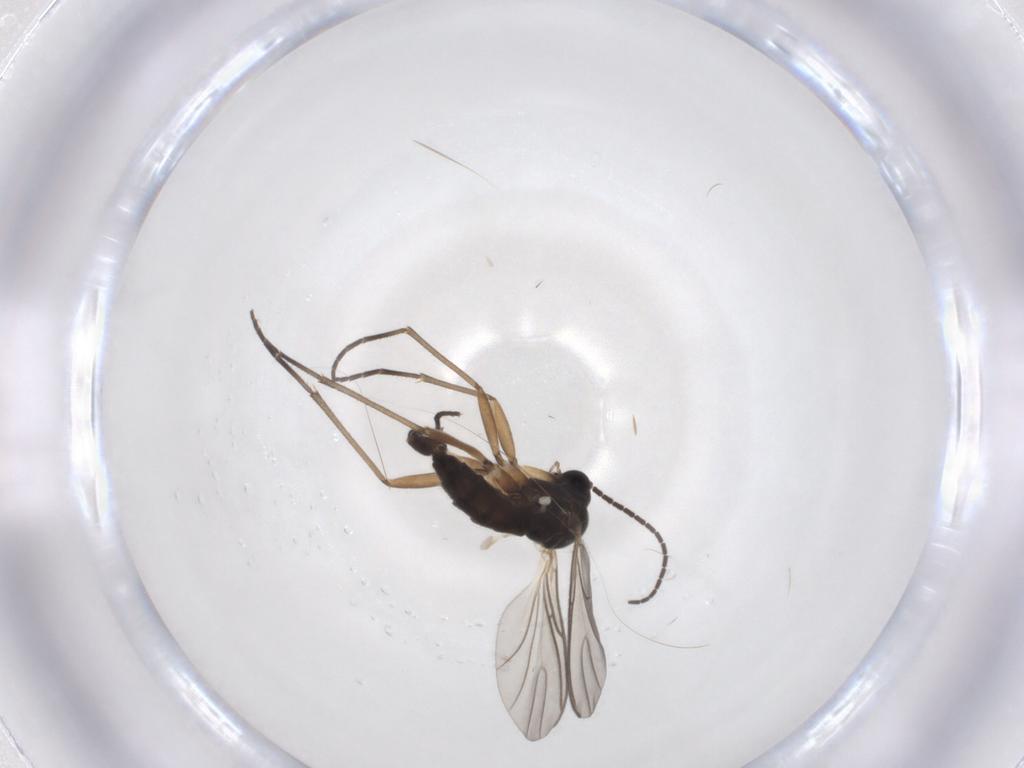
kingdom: Animalia
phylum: Arthropoda
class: Insecta
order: Diptera
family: Sciaridae
